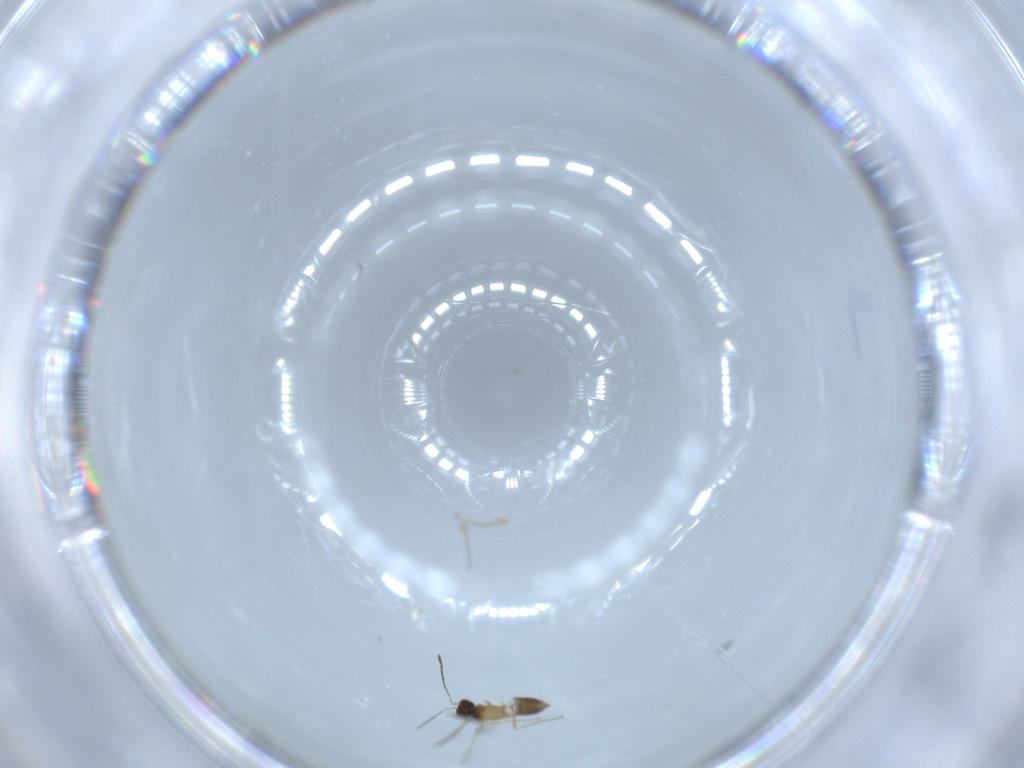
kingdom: Animalia
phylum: Arthropoda
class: Insecta
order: Hymenoptera
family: Mymaridae
